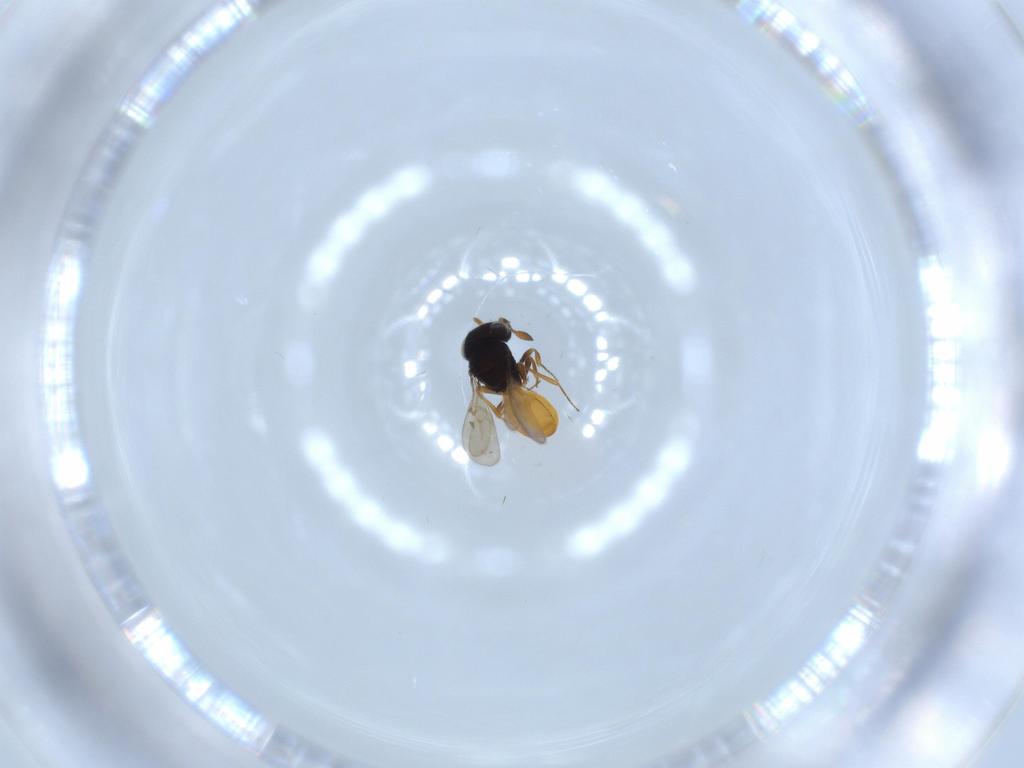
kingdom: Animalia
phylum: Arthropoda
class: Insecta
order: Hymenoptera
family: Scelionidae
